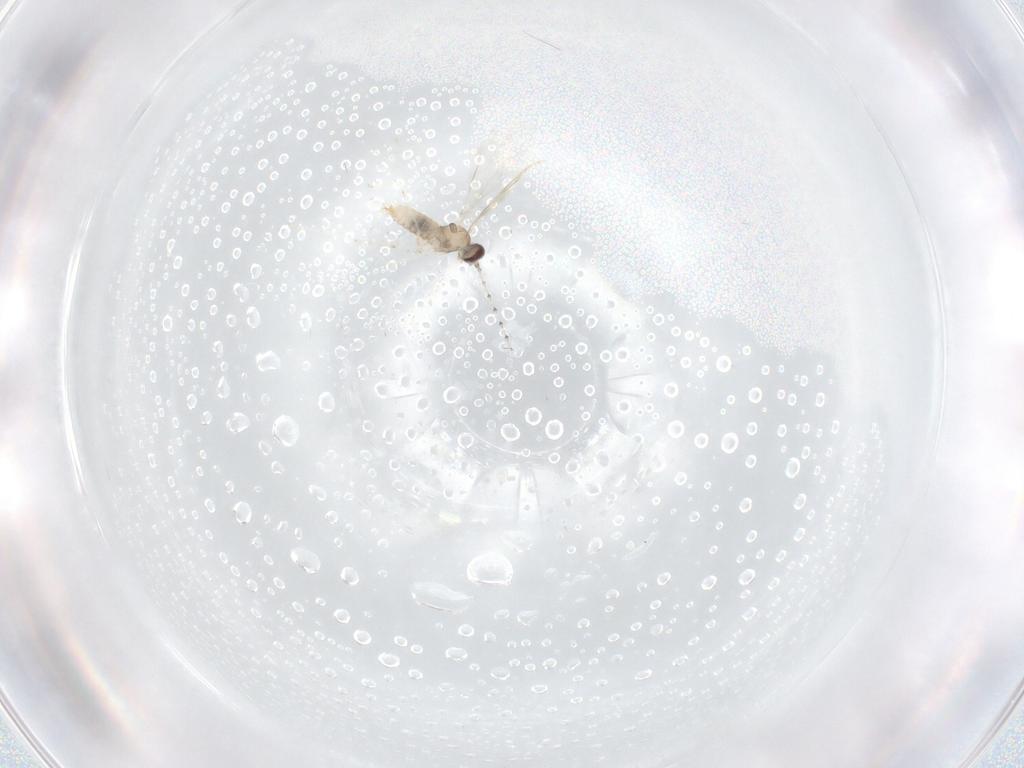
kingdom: Animalia
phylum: Arthropoda
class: Insecta
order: Diptera
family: Cecidomyiidae
